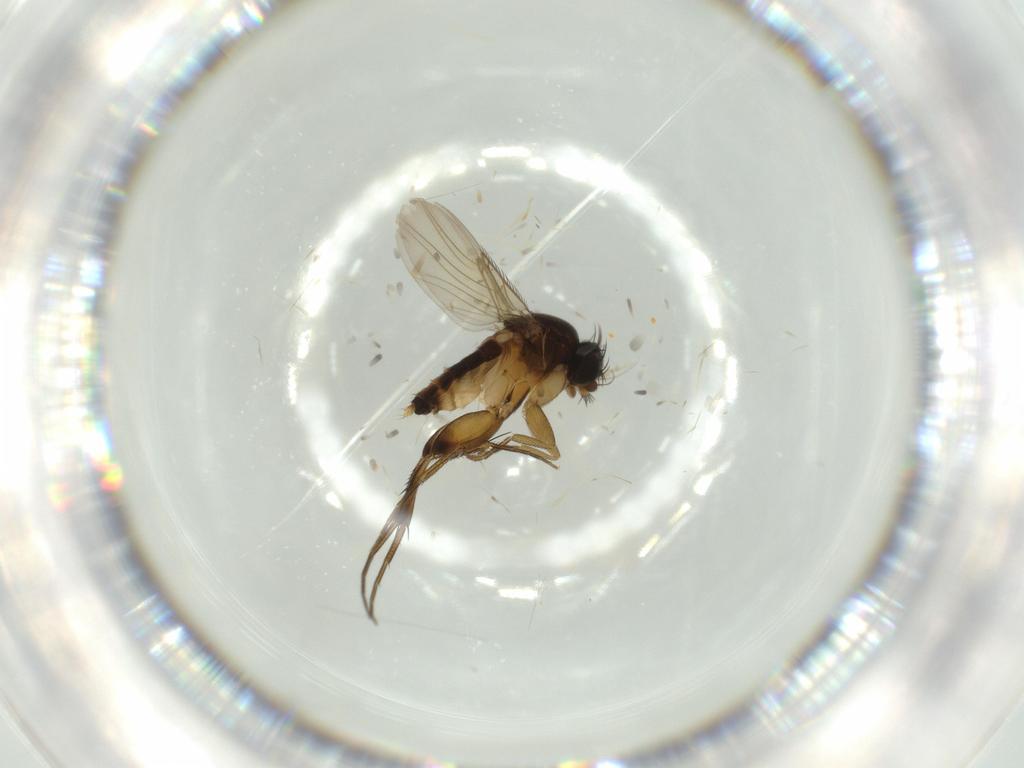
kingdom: Animalia
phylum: Arthropoda
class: Insecta
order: Diptera
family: Phoridae
